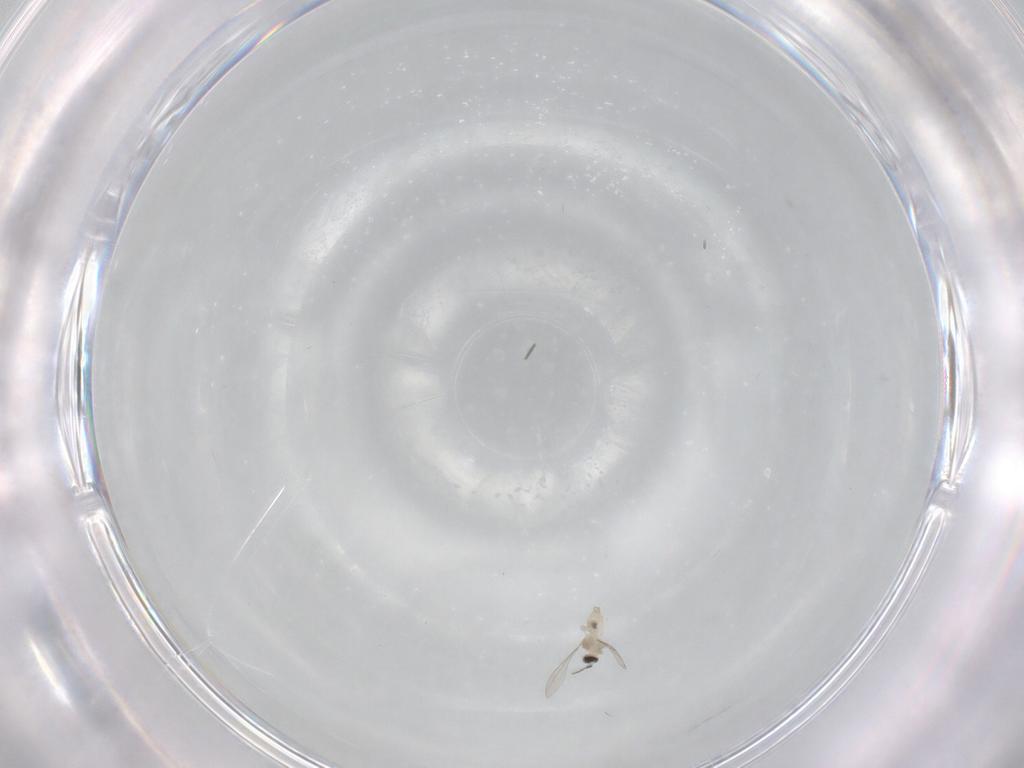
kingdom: Animalia
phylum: Arthropoda
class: Insecta
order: Diptera
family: Cecidomyiidae
